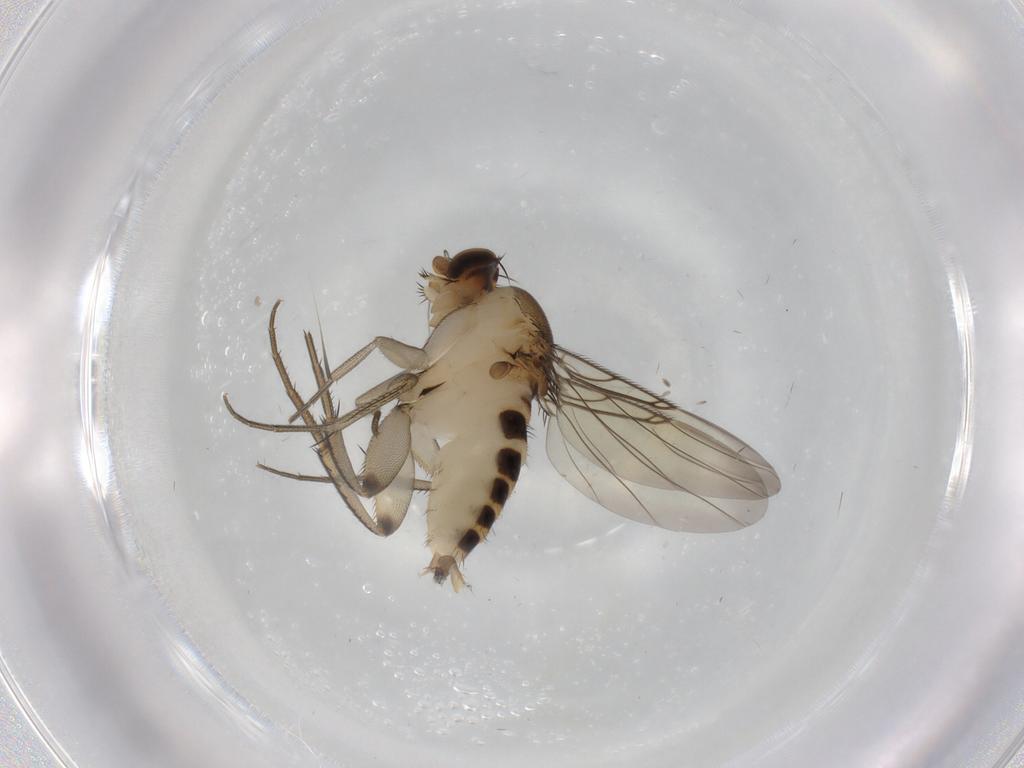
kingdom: Animalia
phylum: Arthropoda
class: Insecta
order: Diptera
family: Phoridae
